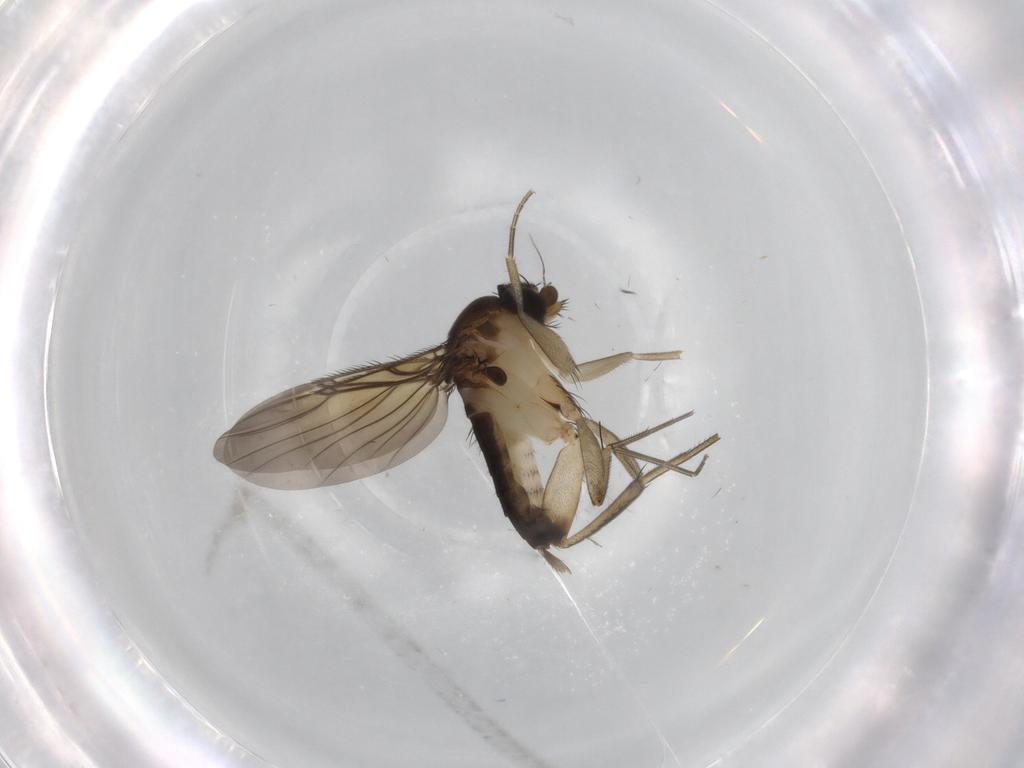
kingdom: Animalia
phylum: Arthropoda
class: Insecta
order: Diptera
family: Cecidomyiidae
